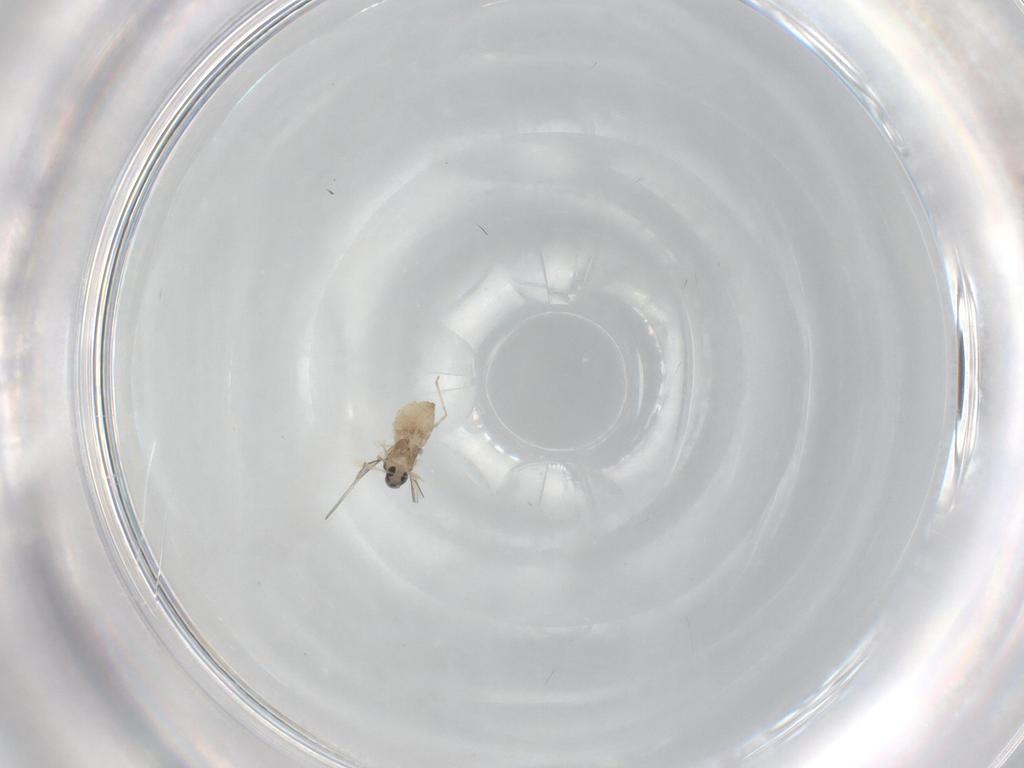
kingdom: Animalia
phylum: Arthropoda
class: Insecta
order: Diptera
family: Cecidomyiidae
